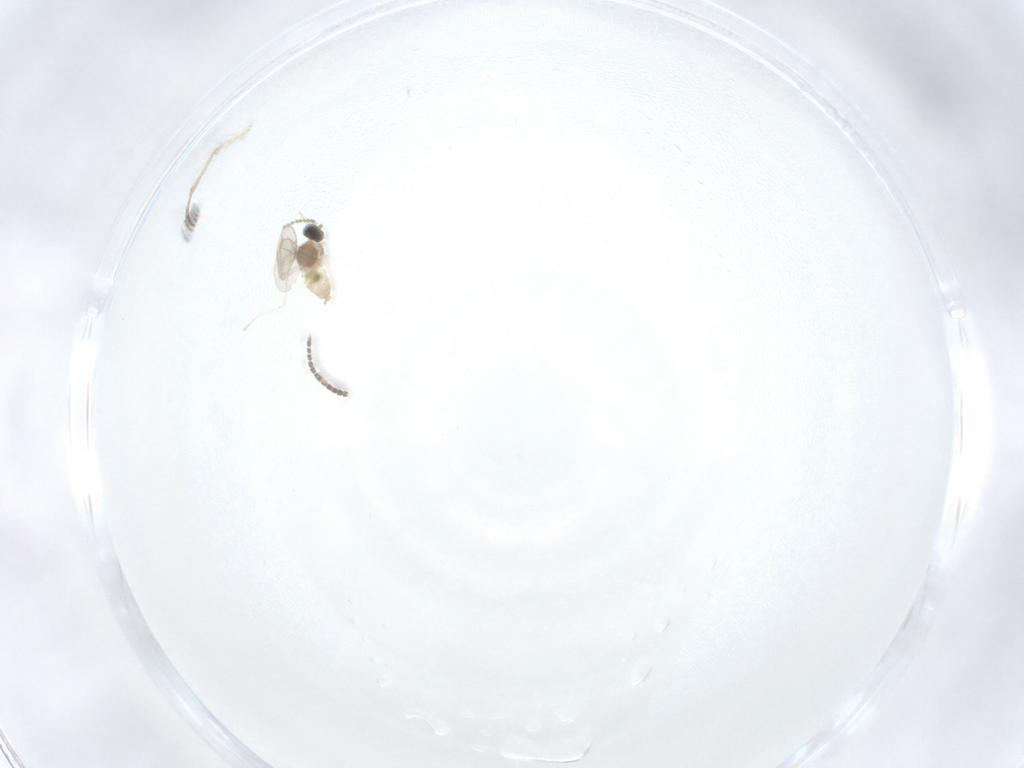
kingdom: Animalia
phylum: Arthropoda
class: Insecta
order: Diptera
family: Cecidomyiidae
